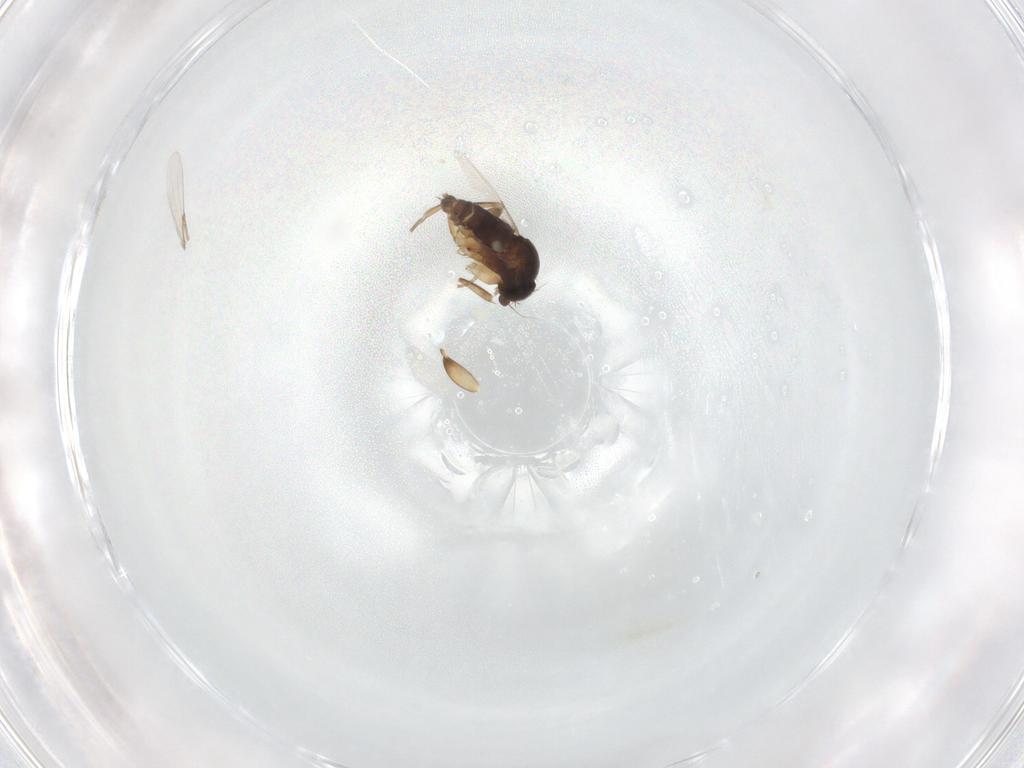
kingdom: Animalia
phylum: Arthropoda
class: Insecta
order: Diptera
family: Phoridae
